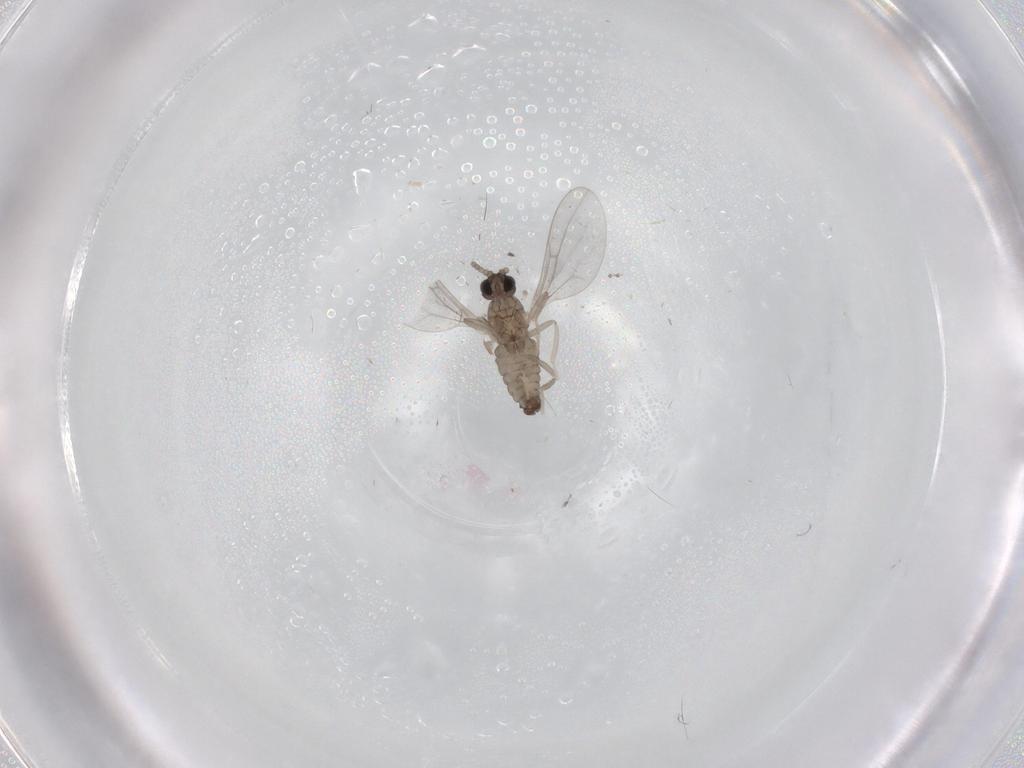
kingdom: Animalia
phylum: Arthropoda
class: Insecta
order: Diptera
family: Cecidomyiidae
